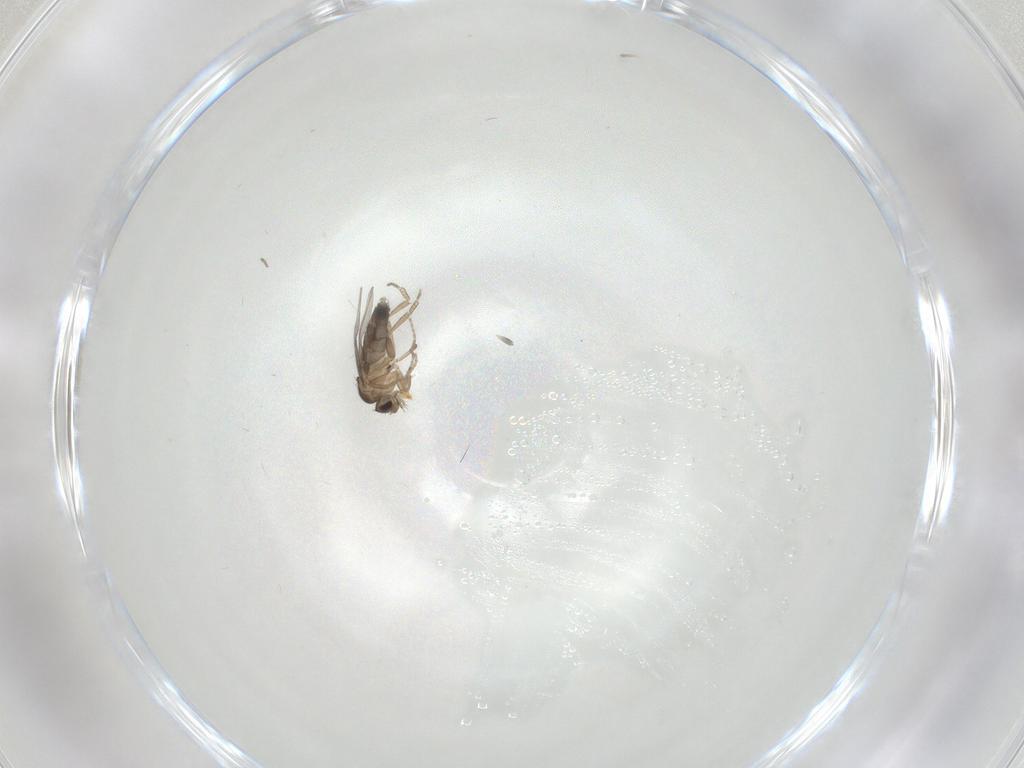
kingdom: Animalia
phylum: Arthropoda
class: Insecta
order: Diptera
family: Phoridae
